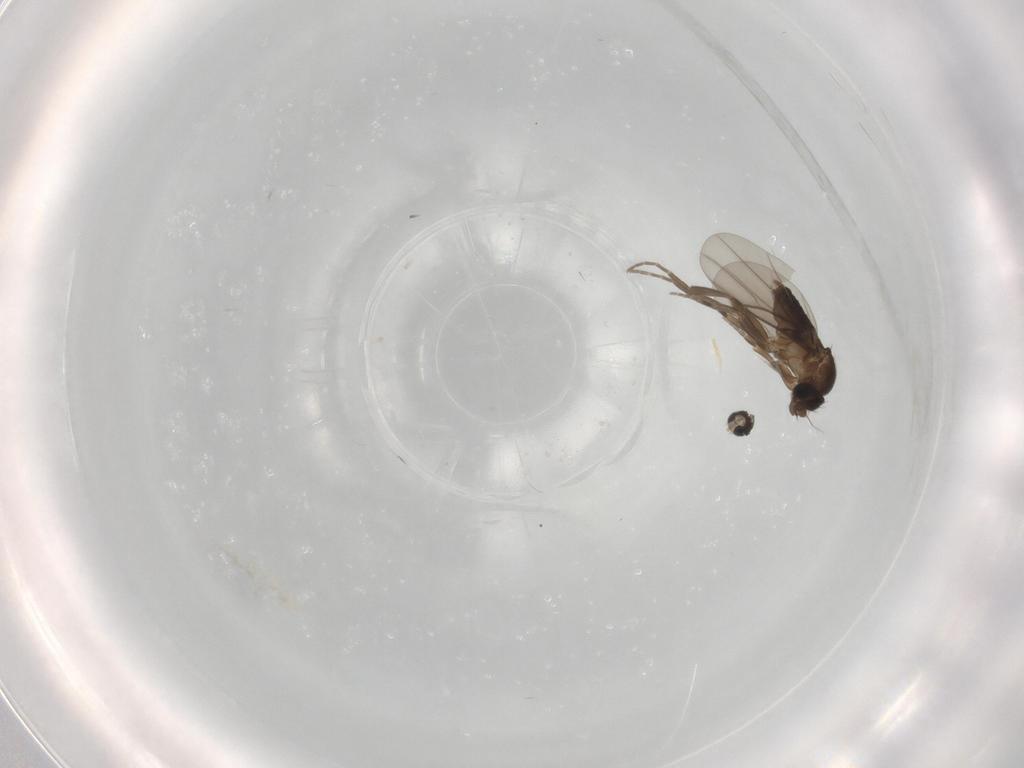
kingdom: Animalia
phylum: Arthropoda
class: Insecta
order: Diptera
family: Cecidomyiidae
